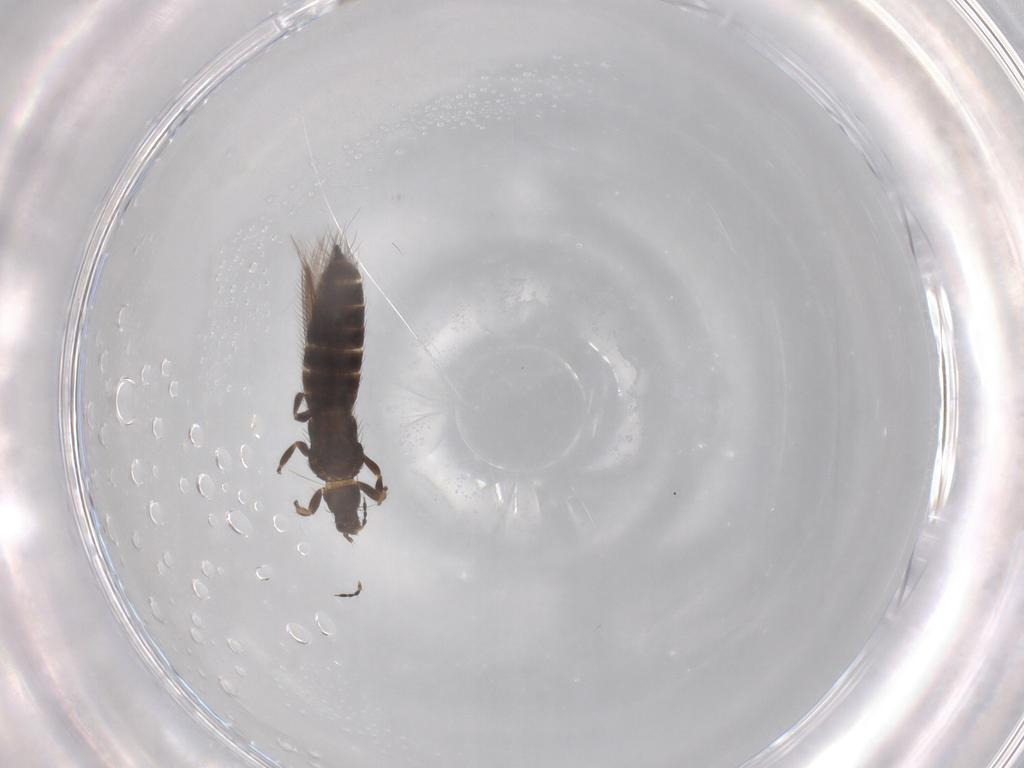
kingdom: Animalia
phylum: Arthropoda
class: Insecta
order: Thysanoptera
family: Thripidae
